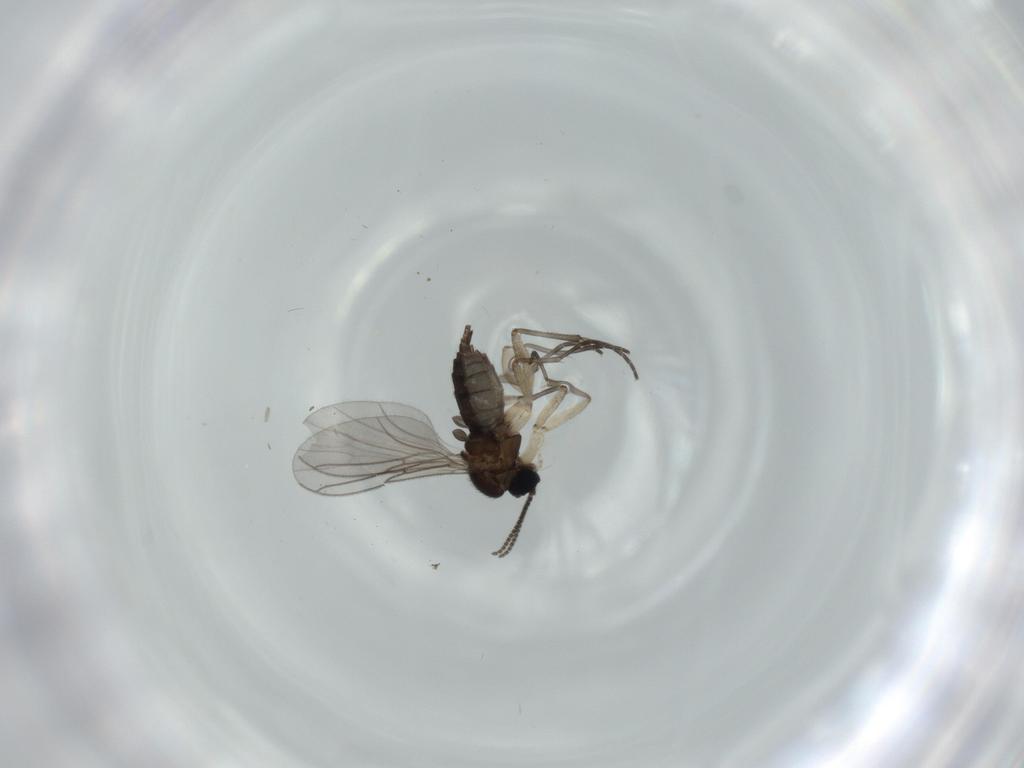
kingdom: Animalia
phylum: Arthropoda
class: Insecta
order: Diptera
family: Sciaridae
